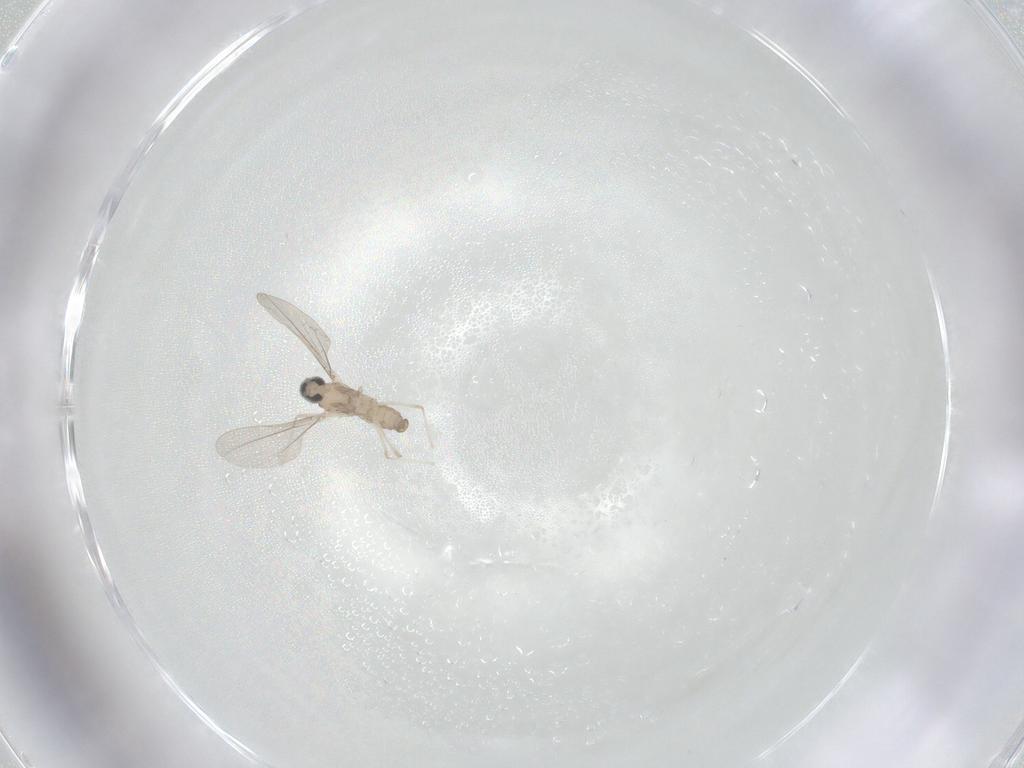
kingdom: Animalia
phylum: Arthropoda
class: Insecta
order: Diptera
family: Cecidomyiidae
